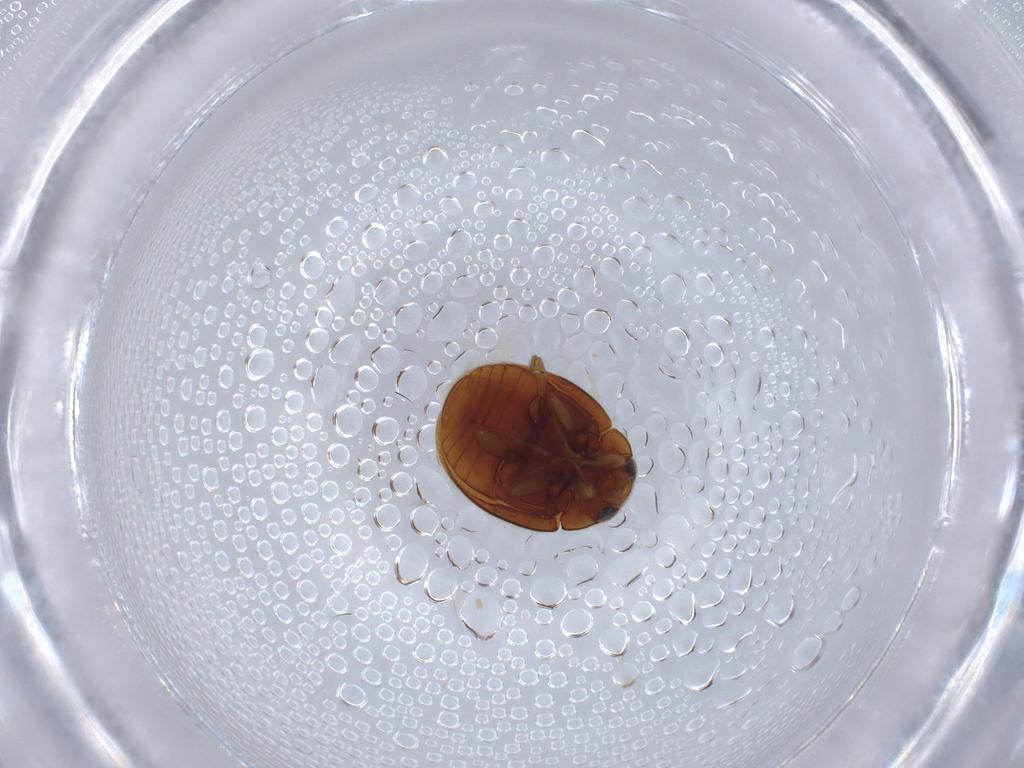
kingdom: Animalia
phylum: Arthropoda
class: Insecta
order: Coleoptera
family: Coccinellidae
